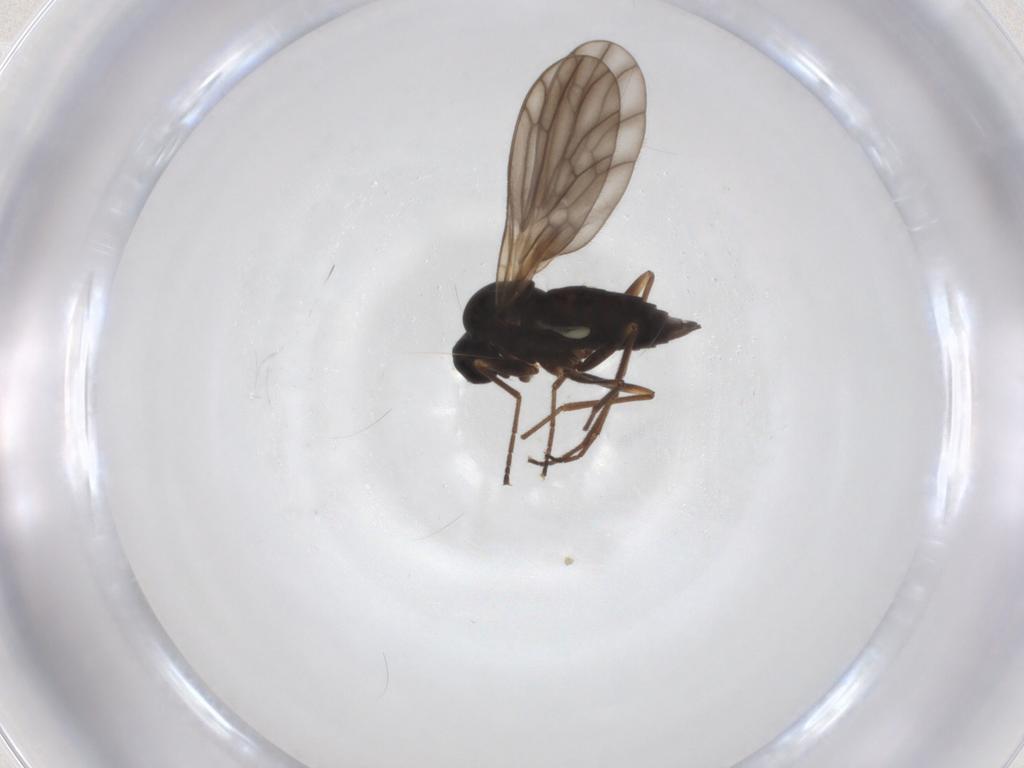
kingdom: Animalia
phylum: Arthropoda
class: Insecta
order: Diptera
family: Empididae
